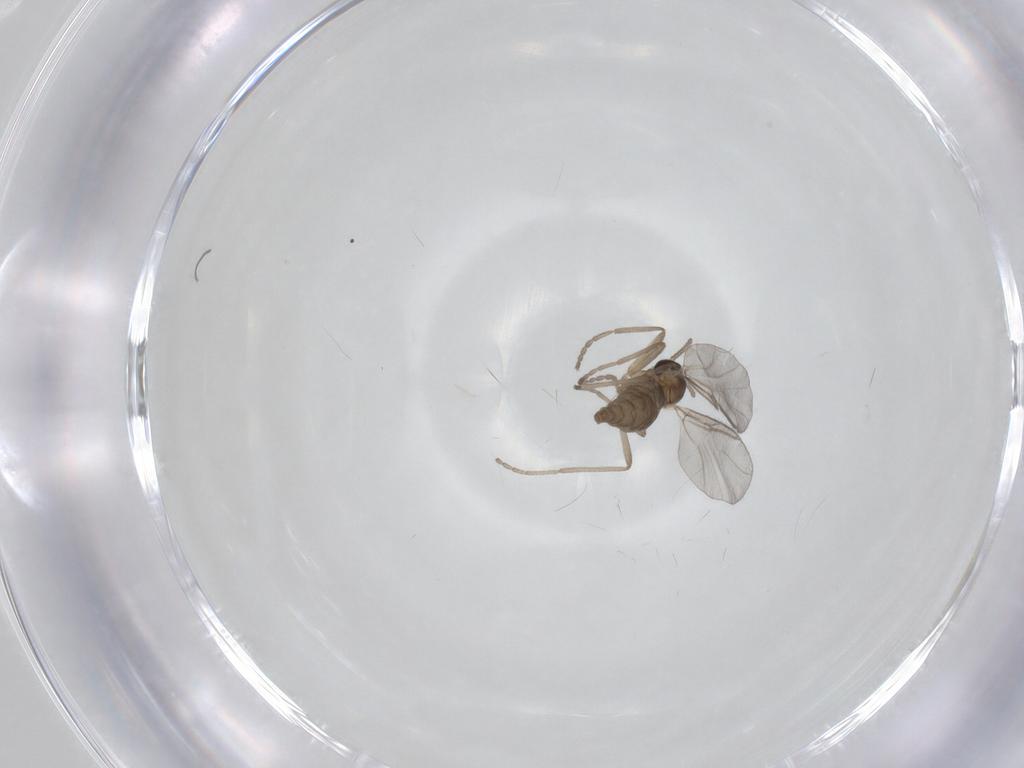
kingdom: Animalia
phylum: Arthropoda
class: Insecta
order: Diptera
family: Cecidomyiidae
